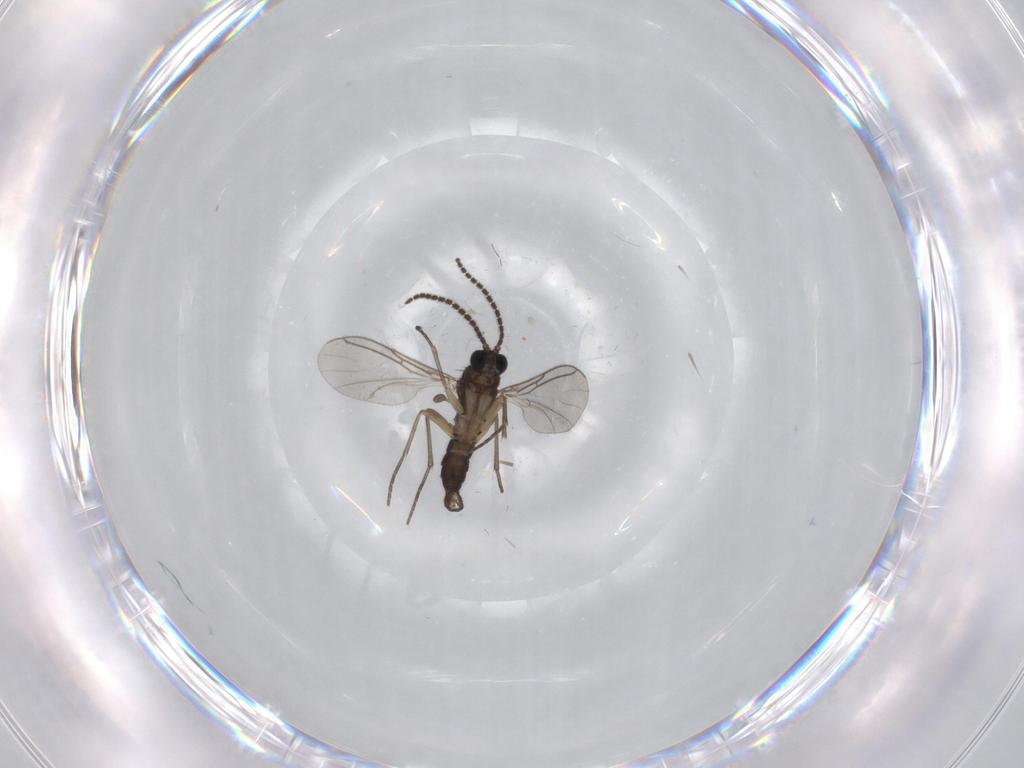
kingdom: Animalia
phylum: Arthropoda
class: Insecta
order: Diptera
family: Sciaridae
